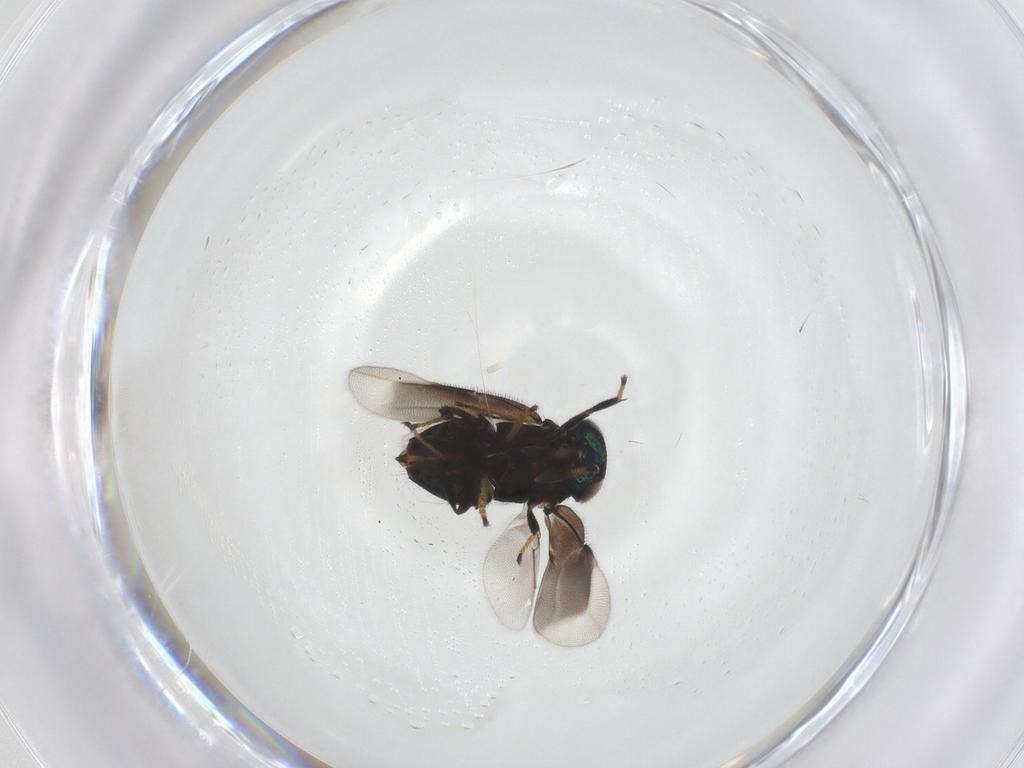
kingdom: Animalia
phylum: Arthropoda
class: Insecta
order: Hymenoptera
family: Encyrtidae
